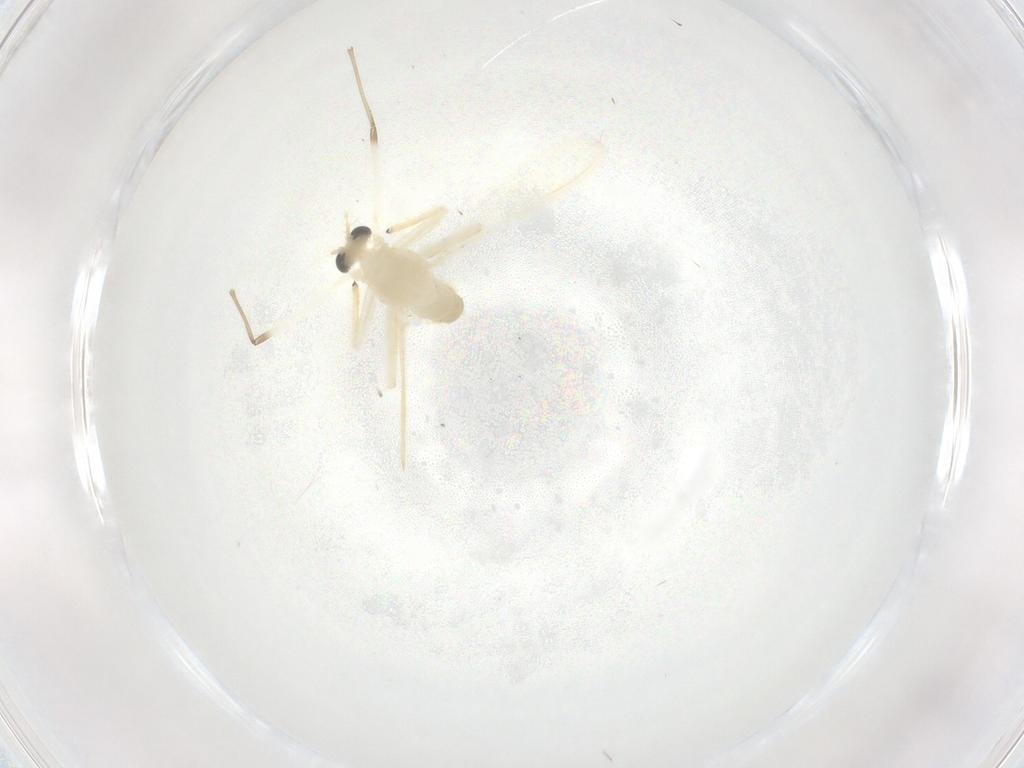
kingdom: Animalia
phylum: Arthropoda
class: Insecta
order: Diptera
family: Chironomidae
